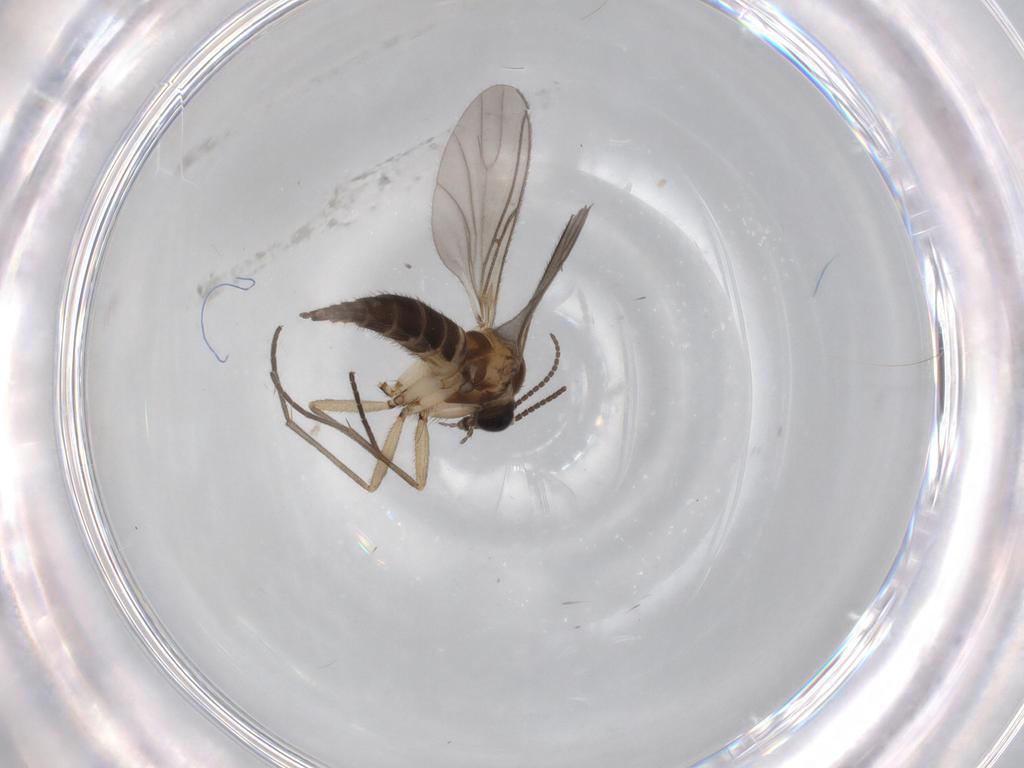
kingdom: Animalia
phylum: Arthropoda
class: Insecta
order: Diptera
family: Sciaridae
